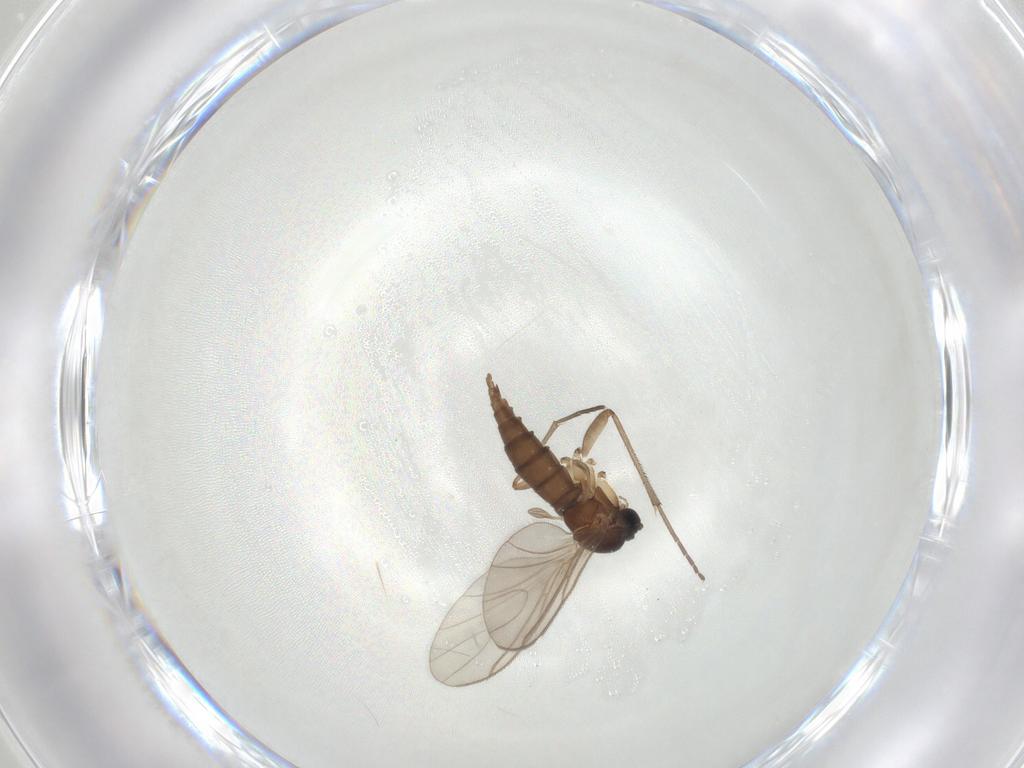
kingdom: Animalia
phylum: Arthropoda
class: Insecta
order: Diptera
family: Sciaridae
